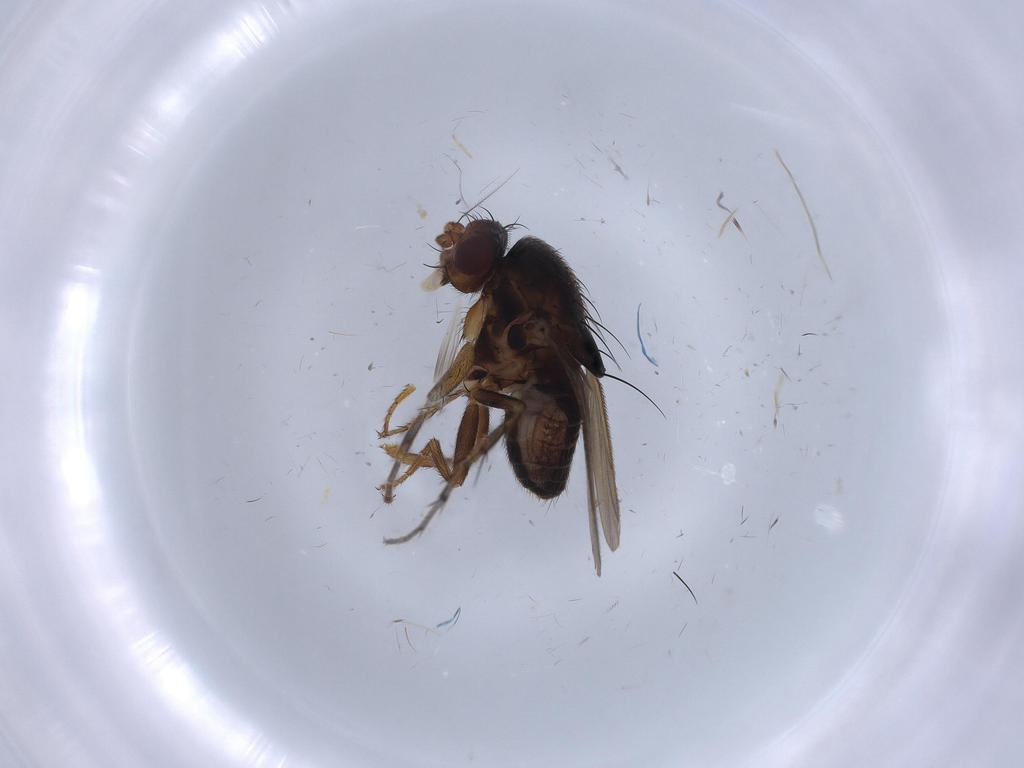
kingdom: Animalia
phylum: Arthropoda
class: Insecta
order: Diptera
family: Sphaeroceridae
